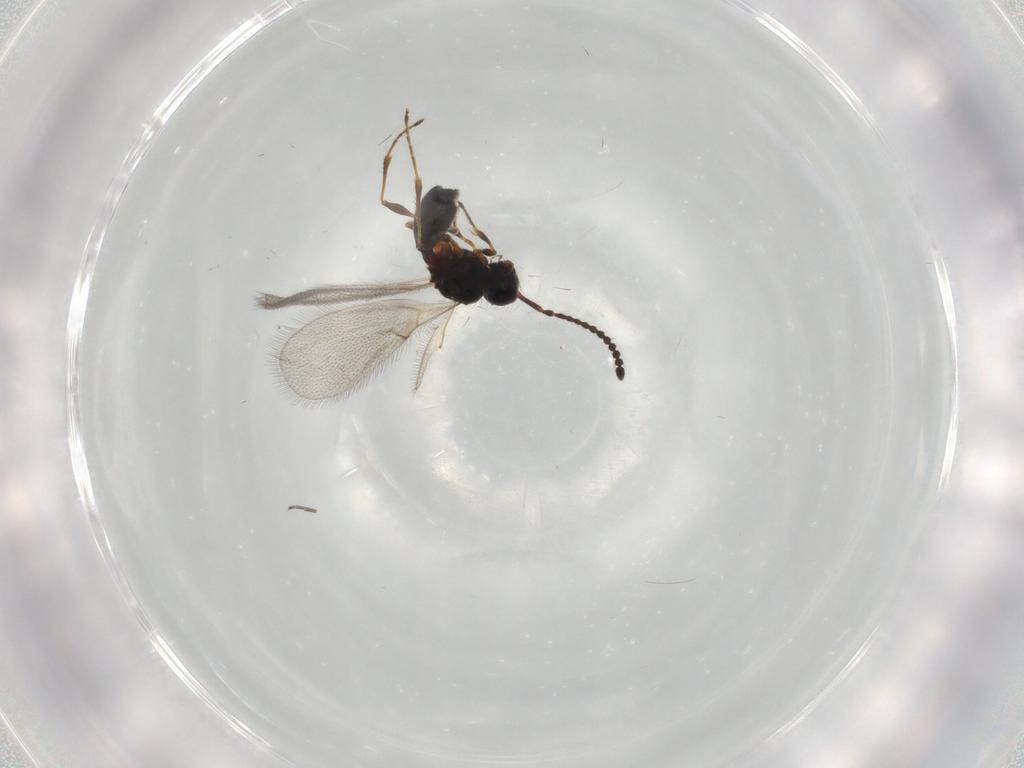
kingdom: Animalia
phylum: Arthropoda
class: Insecta
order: Hymenoptera
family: Diapriidae
